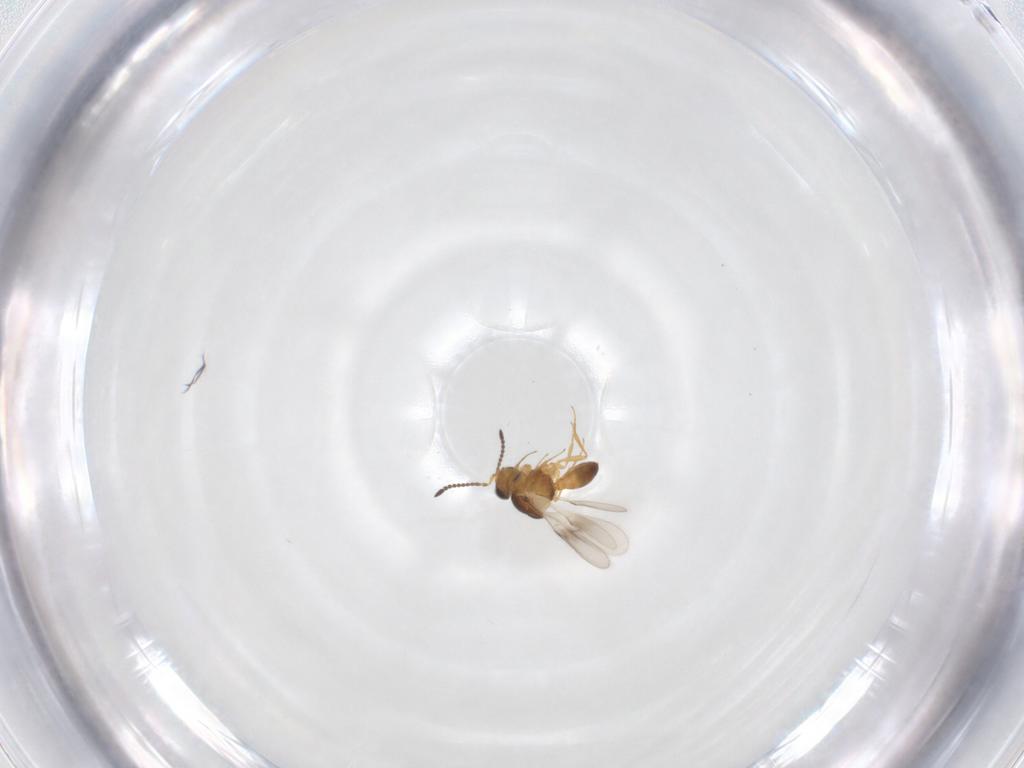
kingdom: Animalia
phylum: Arthropoda
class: Insecta
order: Hymenoptera
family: Scelionidae
